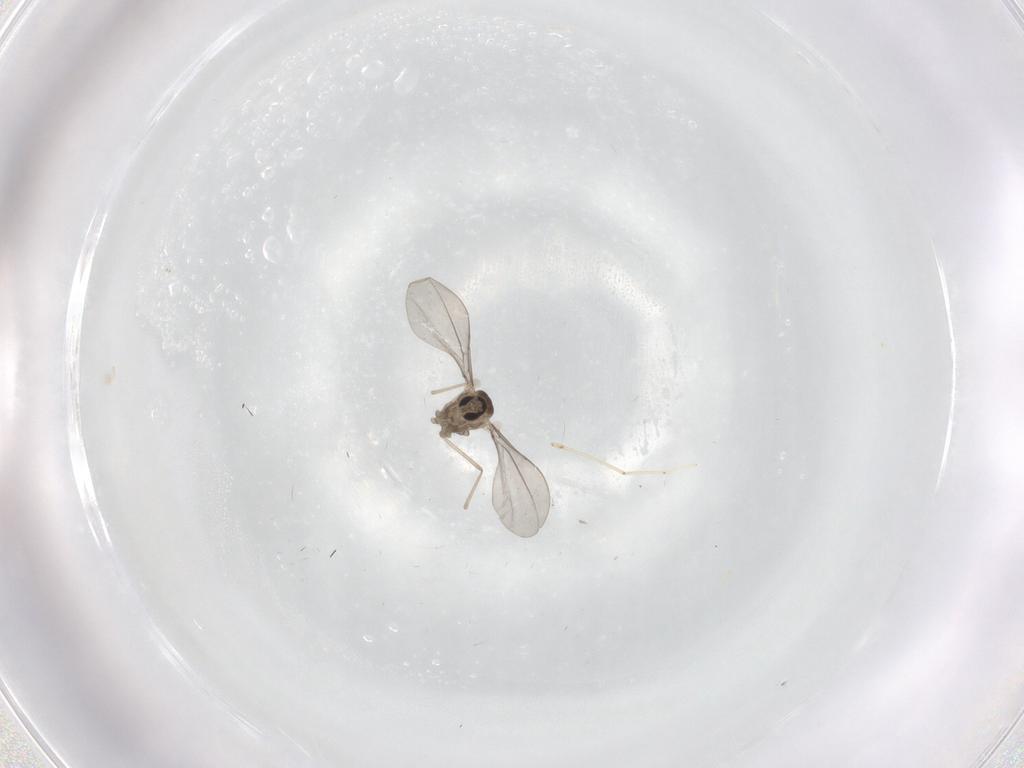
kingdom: Animalia
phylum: Arthropoda
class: Insecta
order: Diptera
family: Cecidomyiidae
